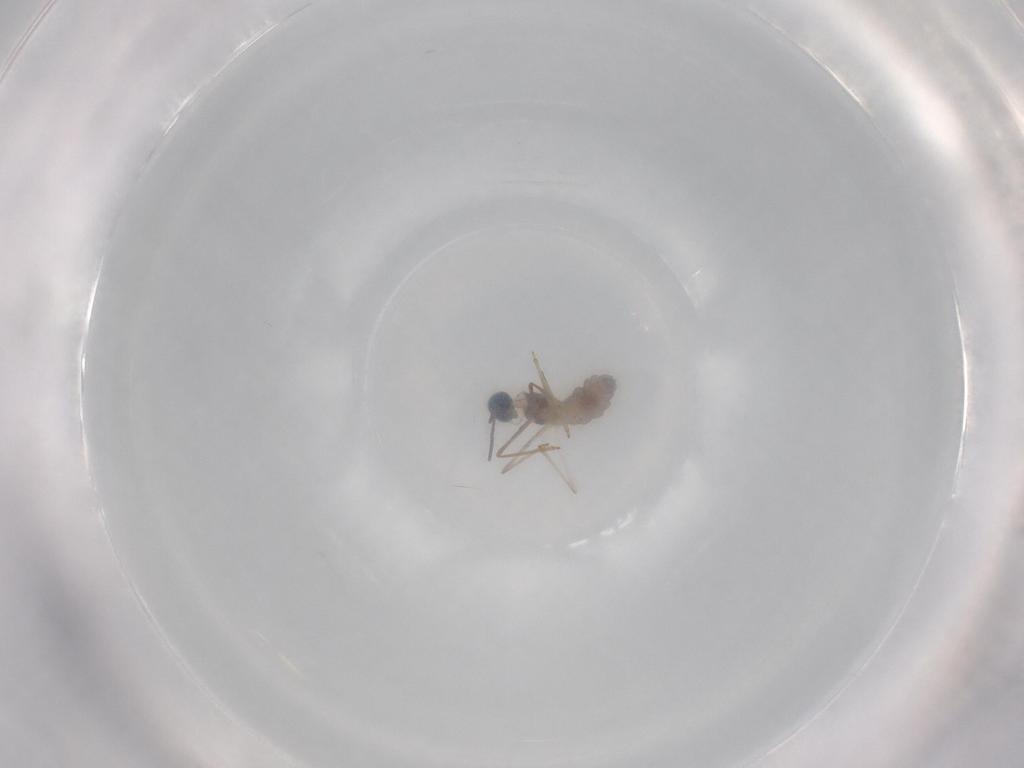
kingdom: Animalia
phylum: Arthropoda
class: Insecta
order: Diptera
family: Cecidomyiidae
